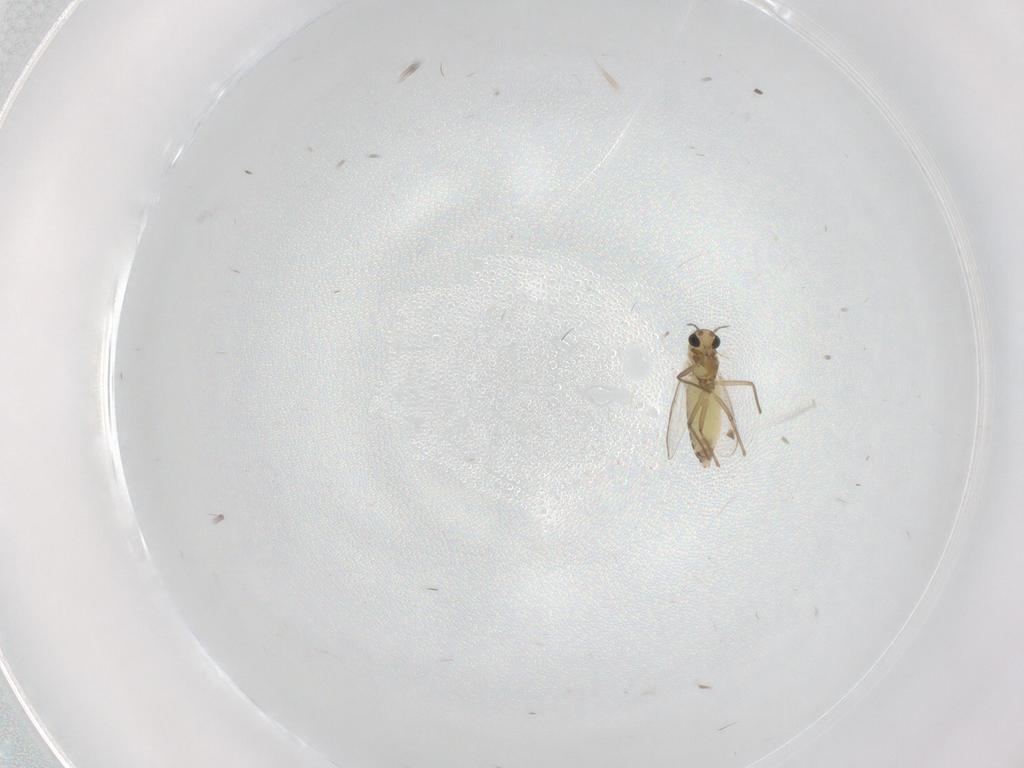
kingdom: Animalia
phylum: Arthropoda
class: Insecta
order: Diptera
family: Chironomidae
